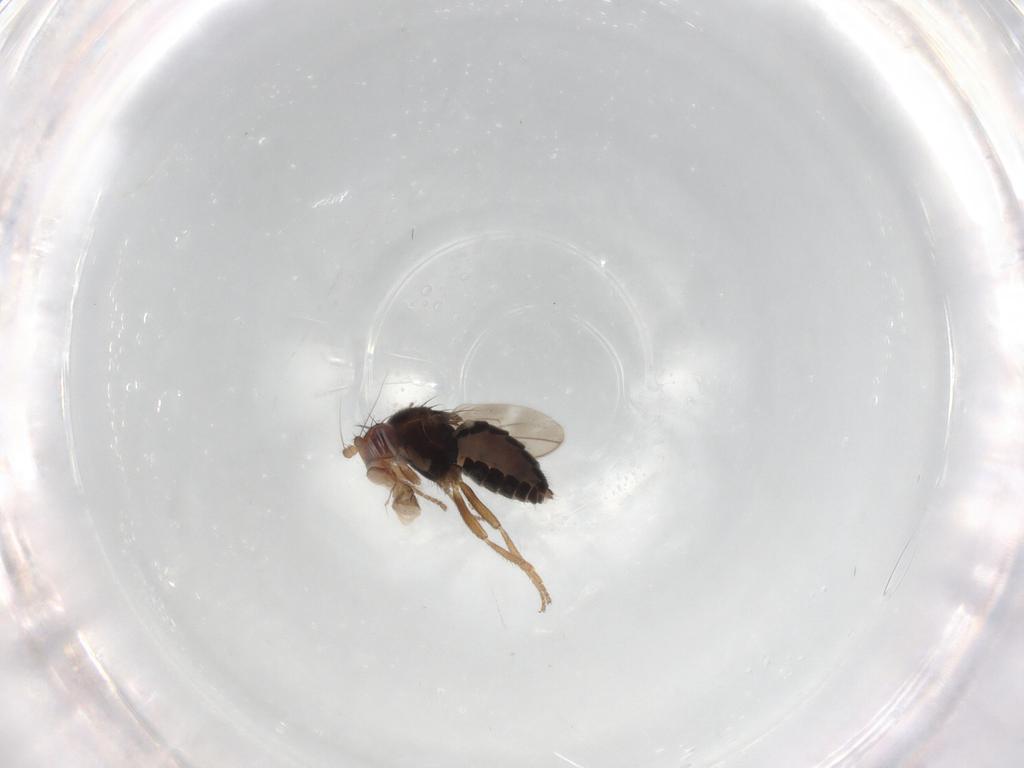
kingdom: Animalia
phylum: Arthropoda
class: Insecta
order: Diptera
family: Sphaeroceridae
